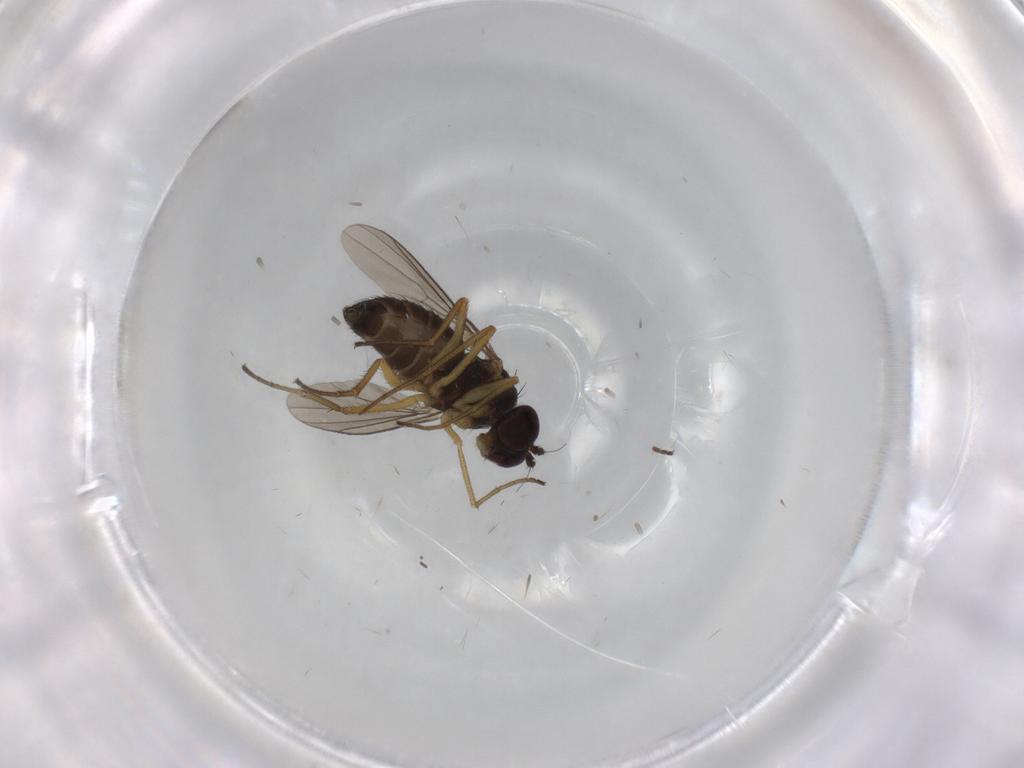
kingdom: Animalia
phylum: Arthropoda
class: Insecta
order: Diptera
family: Dolichopodidae
